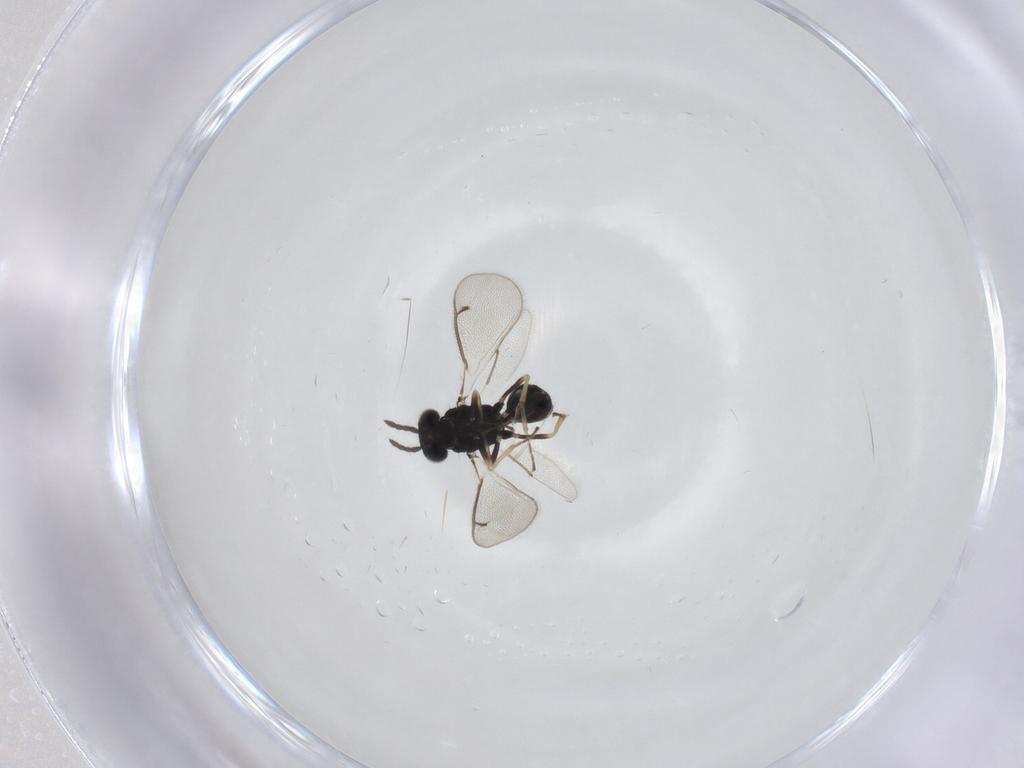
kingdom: Animalia
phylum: Arthropoda
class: Insecta
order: Hymenoptera
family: Eulophidae
